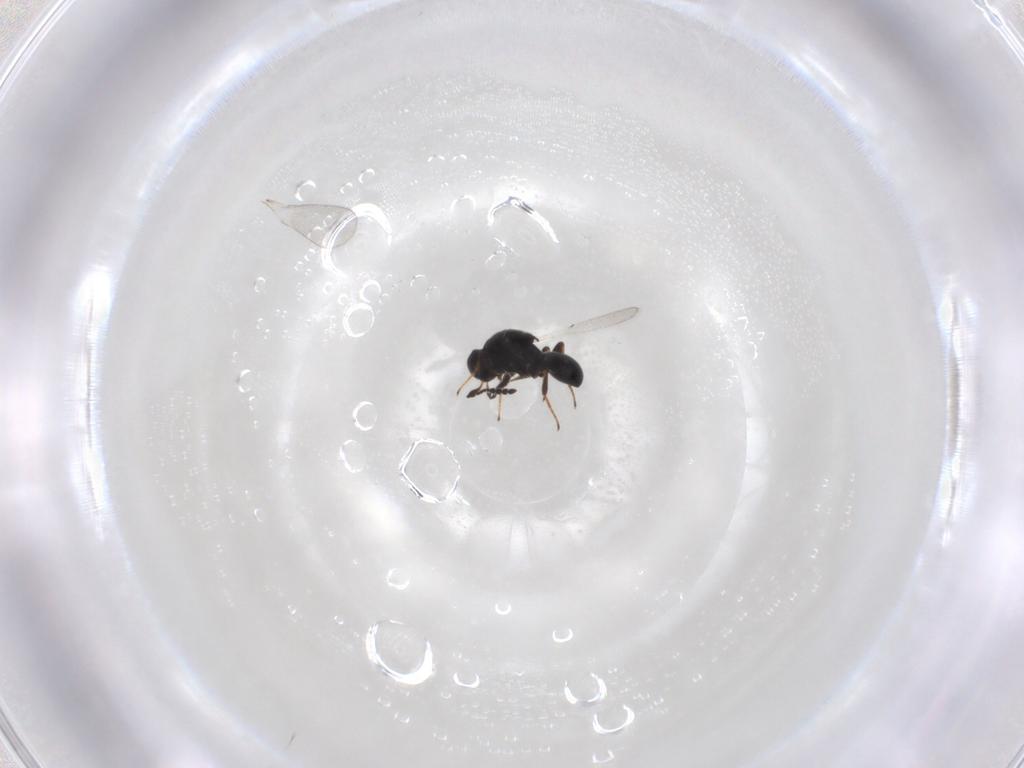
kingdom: Animalia
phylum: Arthropoda
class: Insecta
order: Hymenoptera
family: Platygastridae
